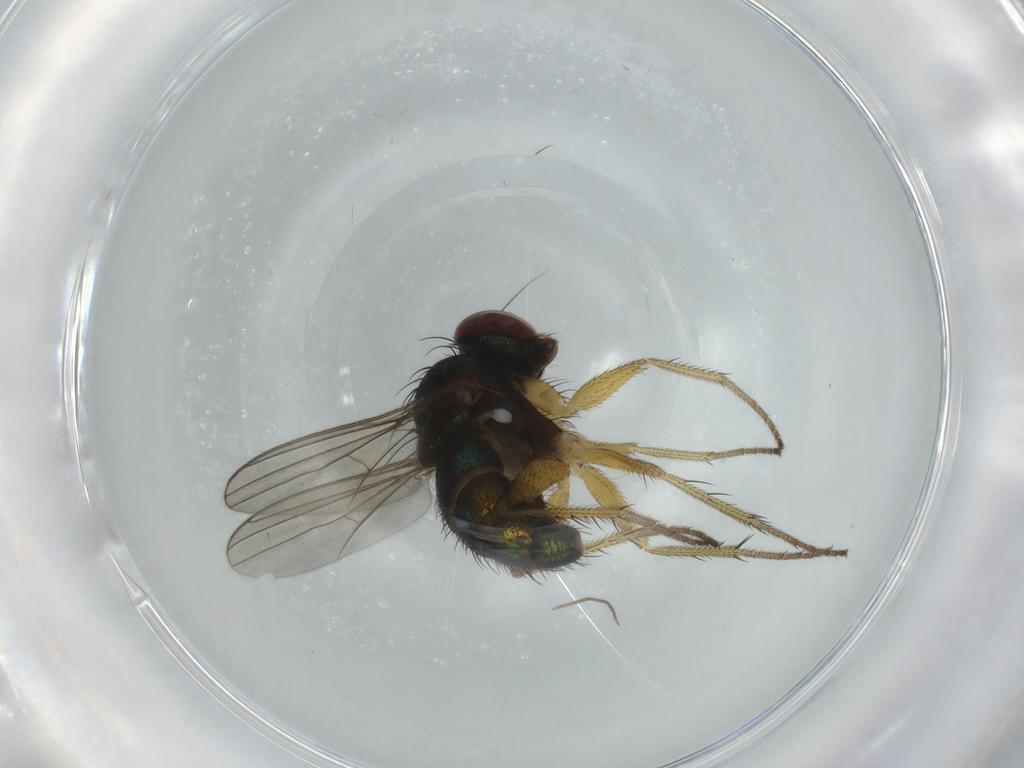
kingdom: Animalia
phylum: Arthropoda
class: Insecta
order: Diptera
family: Dolichopodidae
